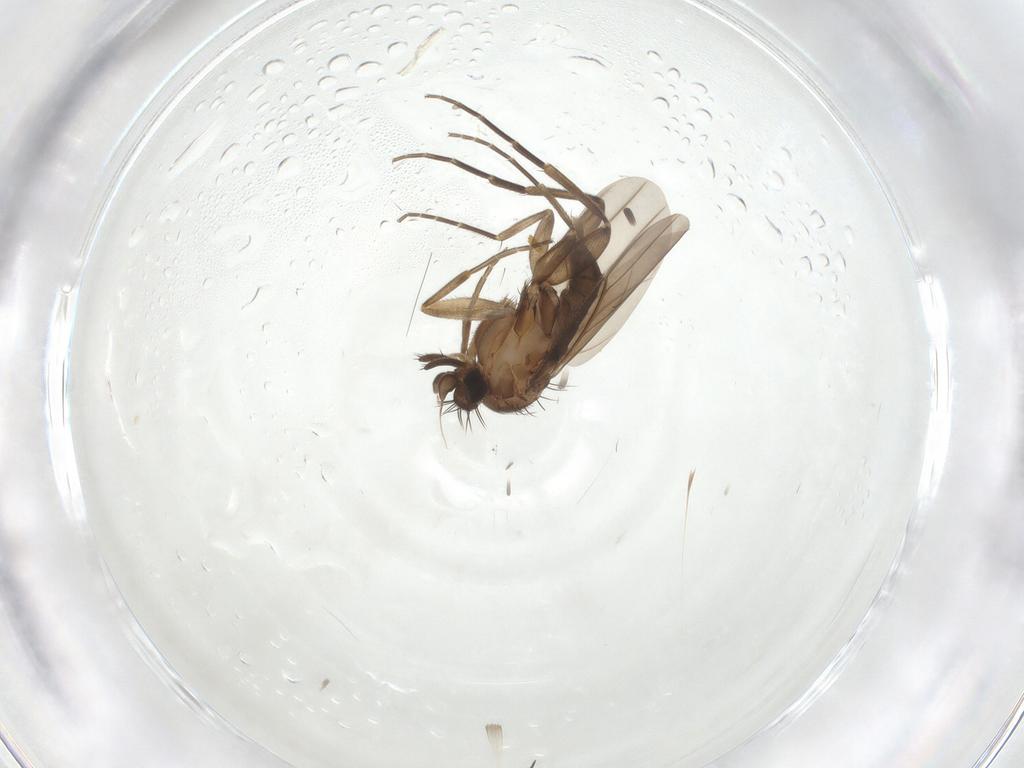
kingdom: Animalia
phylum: Arthropoda
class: Insecta
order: Diptera
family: Phoridae
